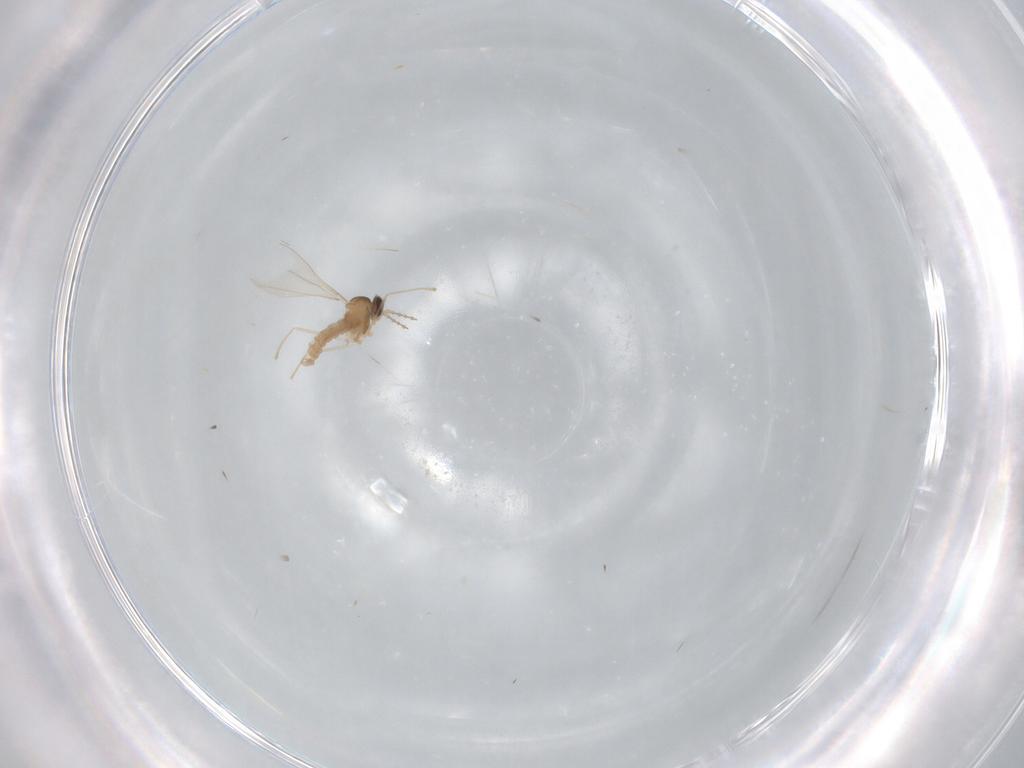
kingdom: Animalia
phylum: Arthropoda
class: Insecta
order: Diptera
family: Cecidomyiidae
